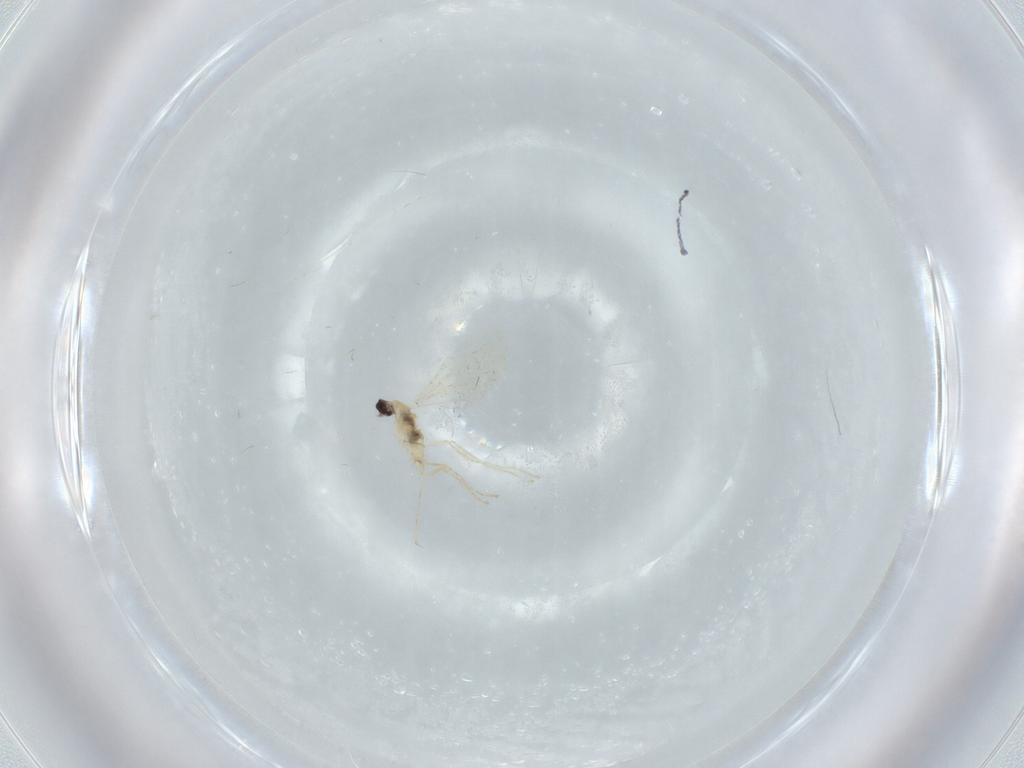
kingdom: Animalia
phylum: Arthropoda
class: Insecta
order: Diptera
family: Cecidomyiidae
